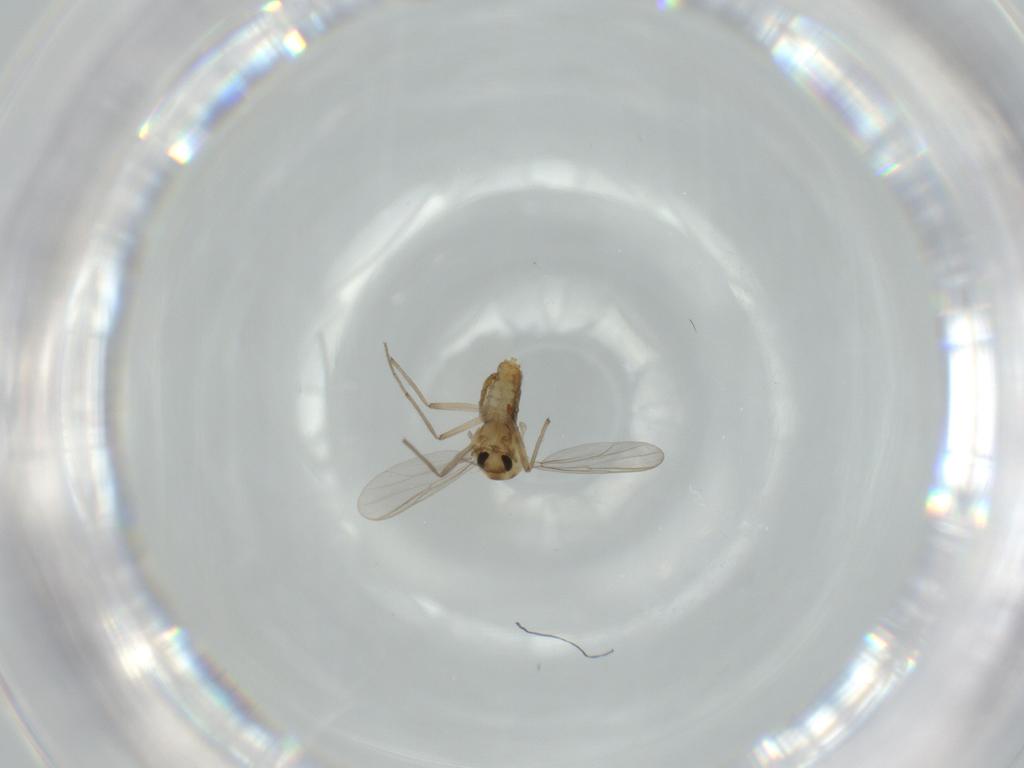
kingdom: Animalia
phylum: Arthropoda
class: Insecta
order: Diptera
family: Chironomidae
